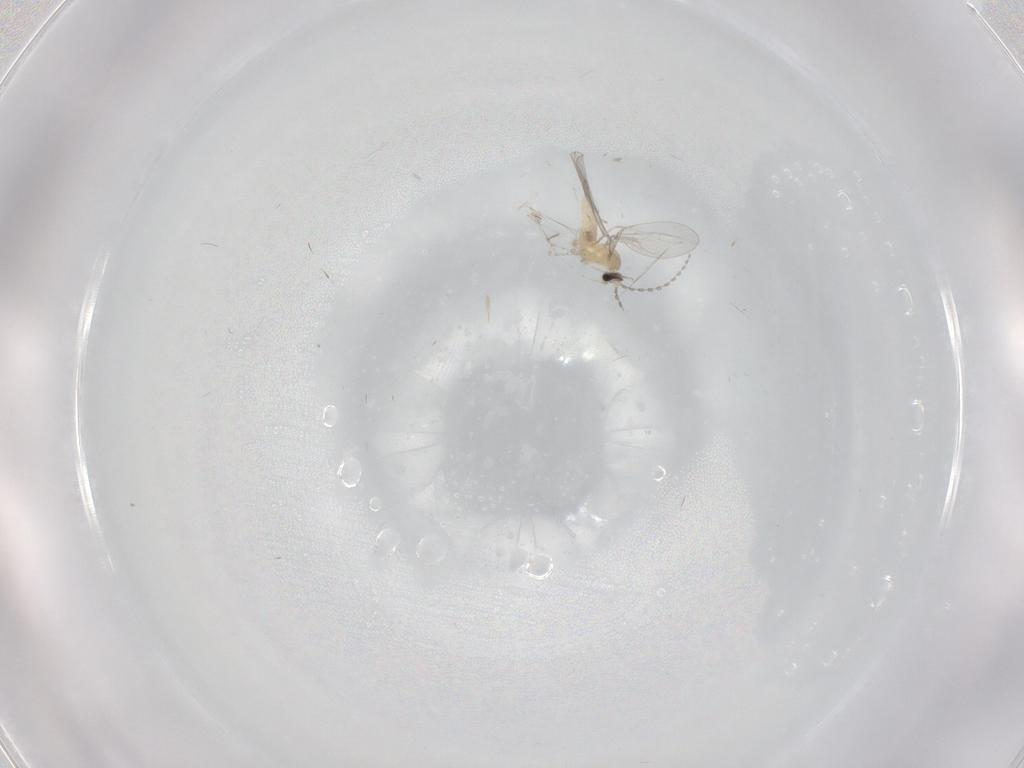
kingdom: Animalia
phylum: Arthropoda
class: Insecta
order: Diptera
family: Cecidomyiidae
